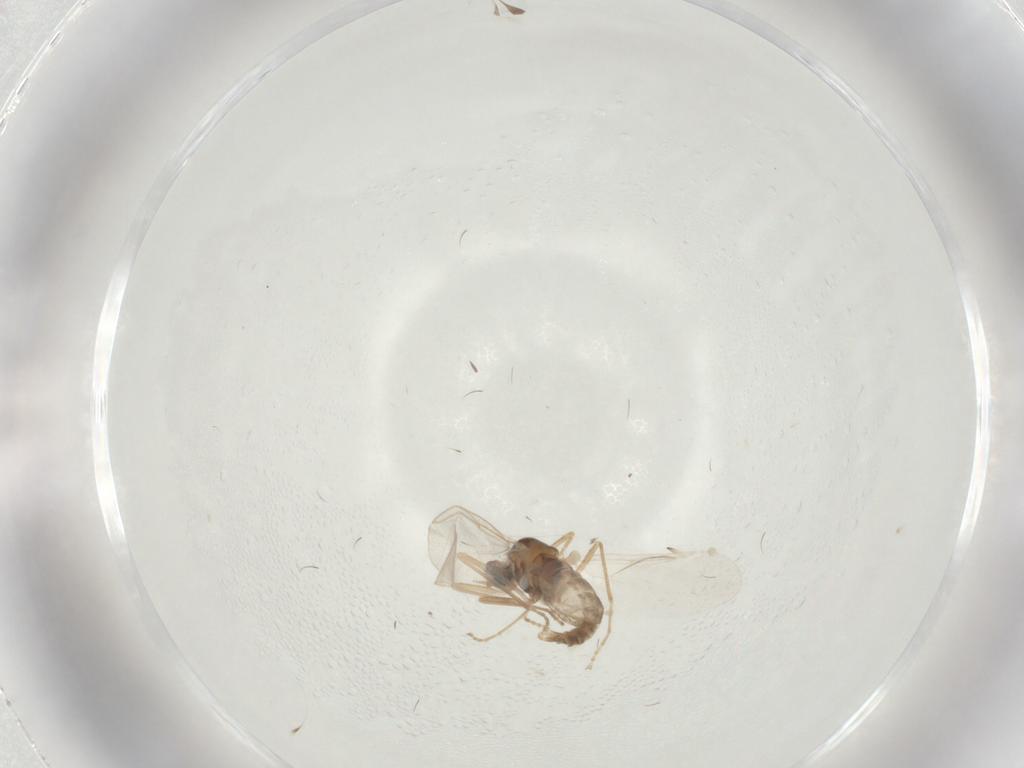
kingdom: Animalia
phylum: Arthropoda
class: Insecta
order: Diptera
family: Cecidomyiidae
